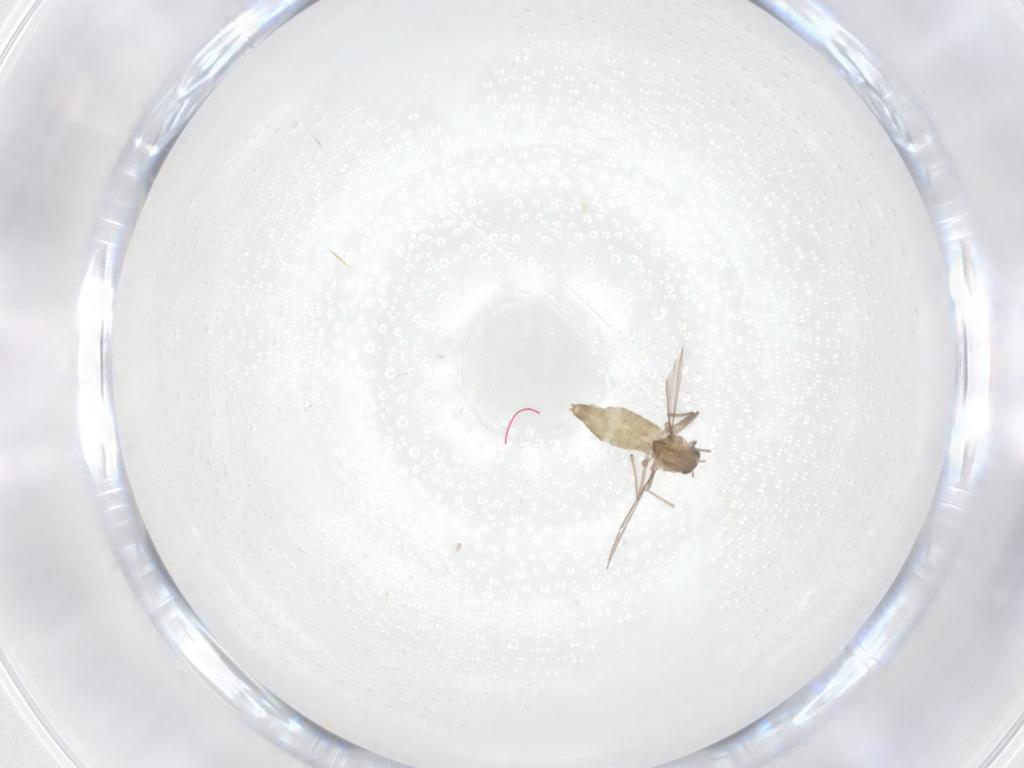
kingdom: Animalia
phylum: Arthropoda
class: Insecta
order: Diptera
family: Chironomidae
